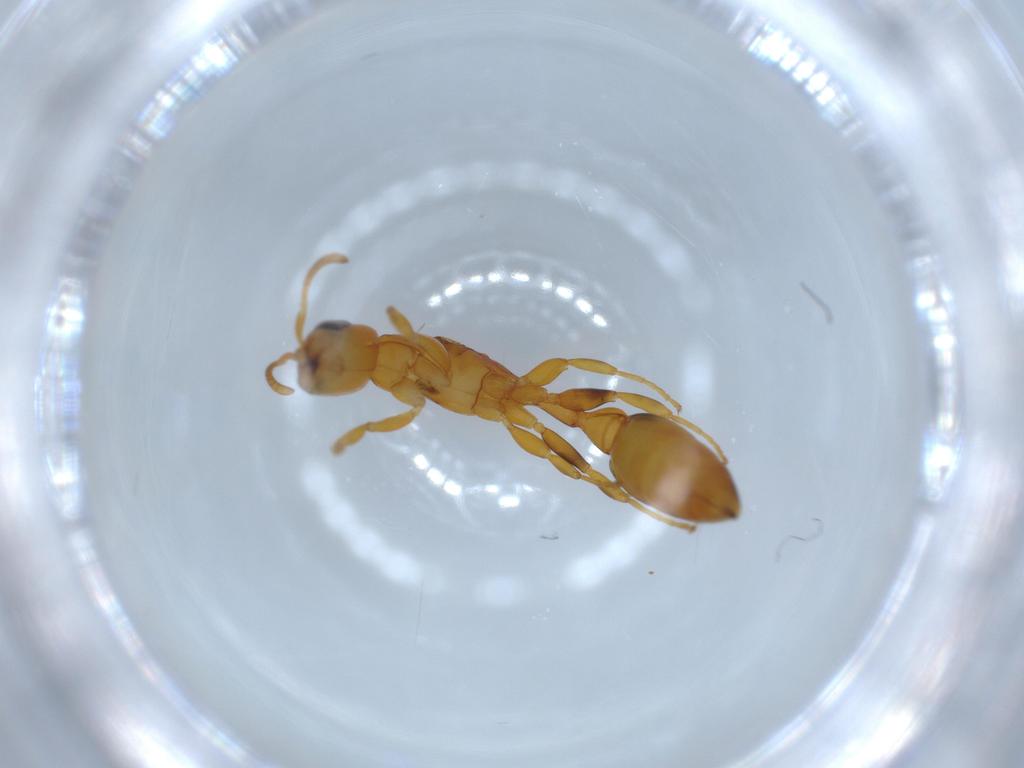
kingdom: Animalia
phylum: Arthropoda
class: Insecta
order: Hymenoptera
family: Formicidae
